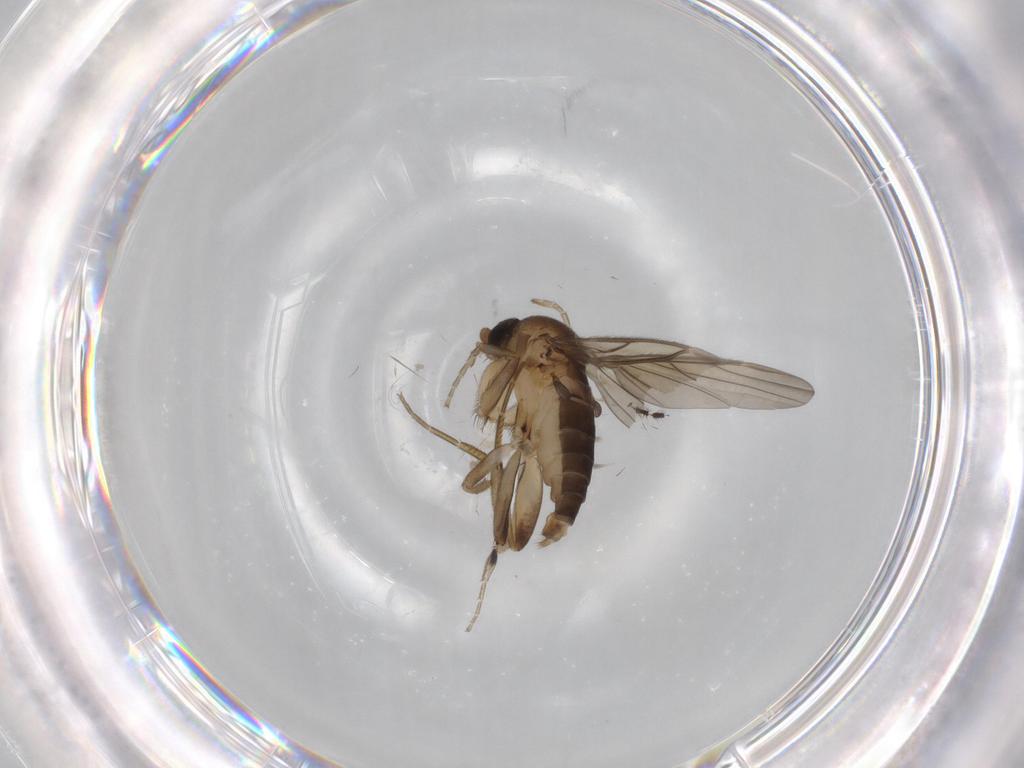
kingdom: Animalia
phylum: Arthropoda
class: Insecta
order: Diptera
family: Phoridae
